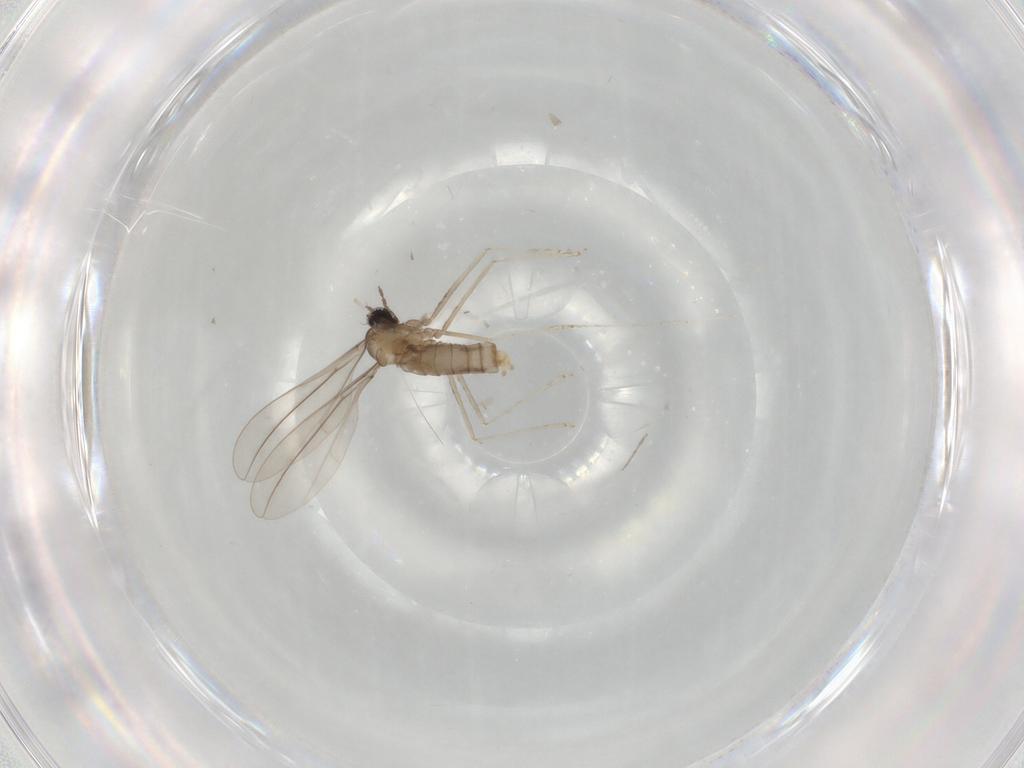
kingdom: Animalia
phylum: Arthropoda
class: Insecta
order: Diptera
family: Cecidomyiidae
